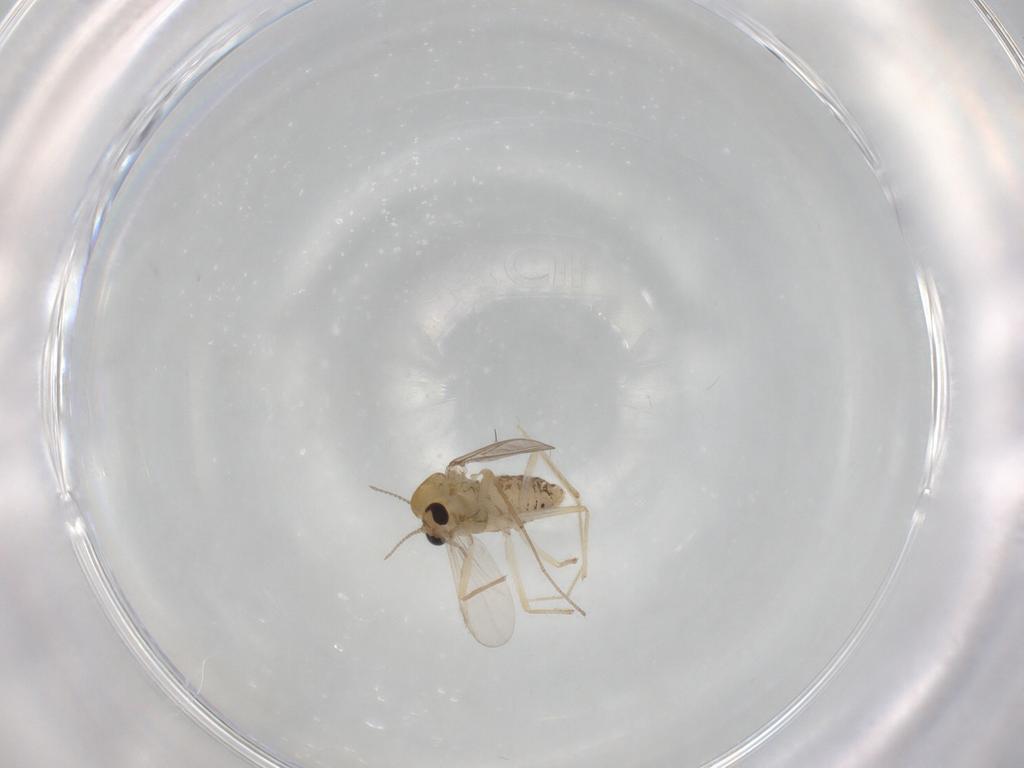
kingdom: Animalia
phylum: Arthropoda
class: Insecta
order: Diptera
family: Chironomidae
